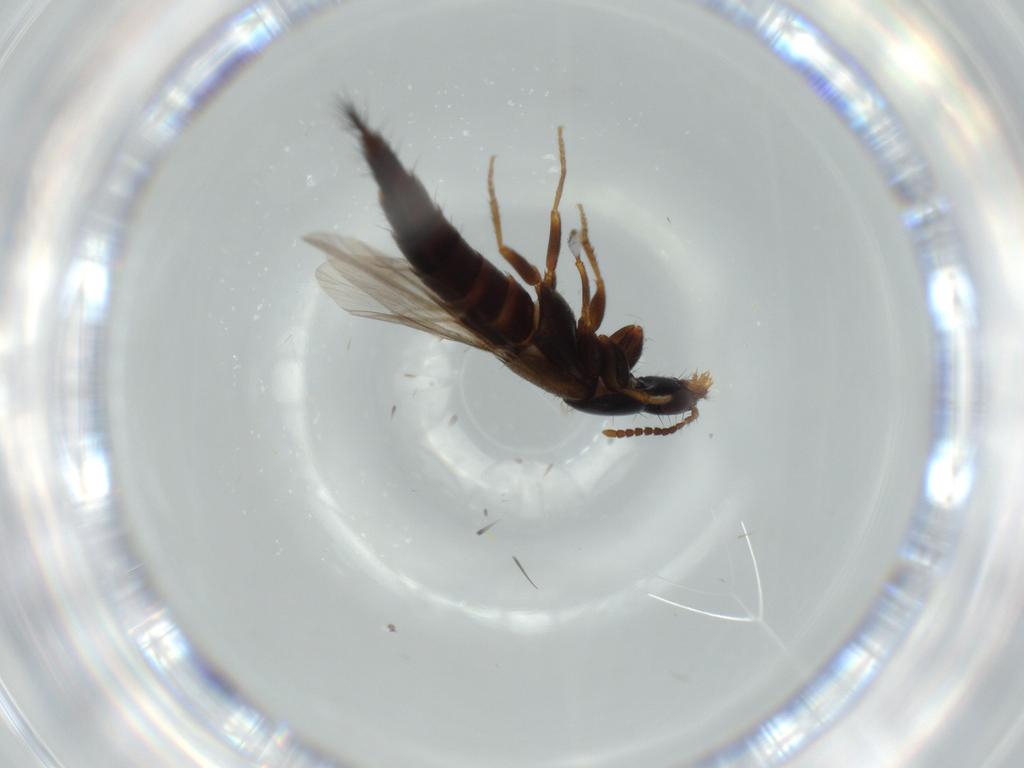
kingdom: Animalia
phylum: Arthropoda
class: Insecta
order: Coleoptera
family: Staphylinidae
